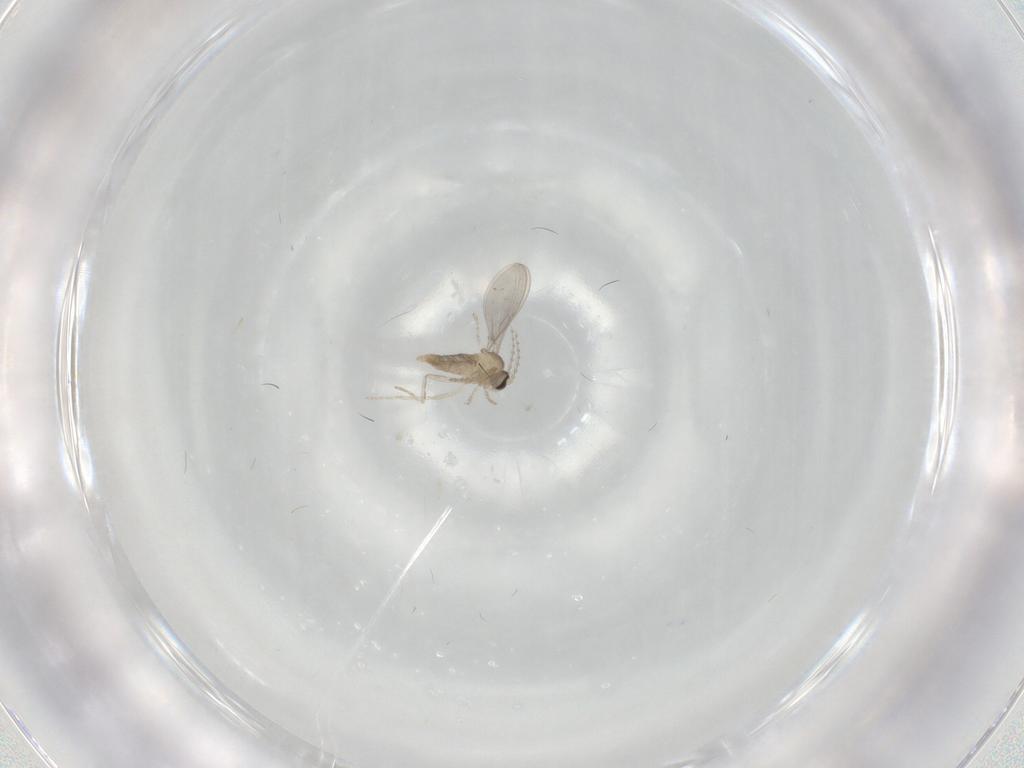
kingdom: Animalia
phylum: Arthropoda
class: Insecta
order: Diptera
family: Cecidomyiidae
